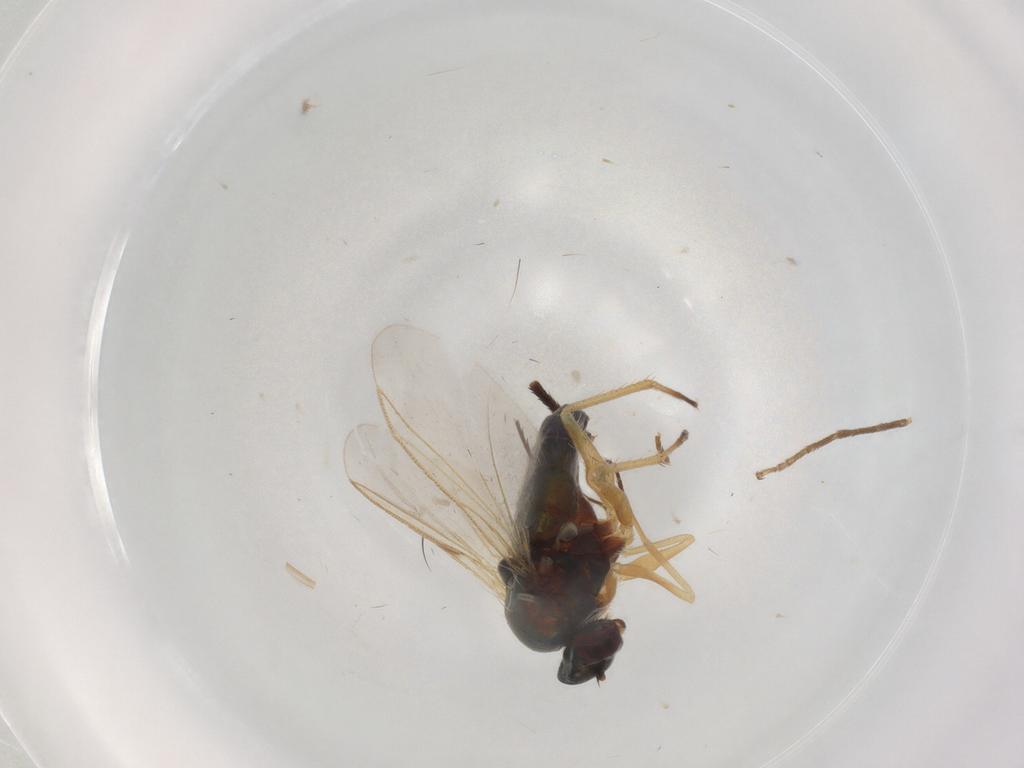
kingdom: Animalia
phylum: Arthropoda
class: Insecta
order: Diptera
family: Dolichopodidae
